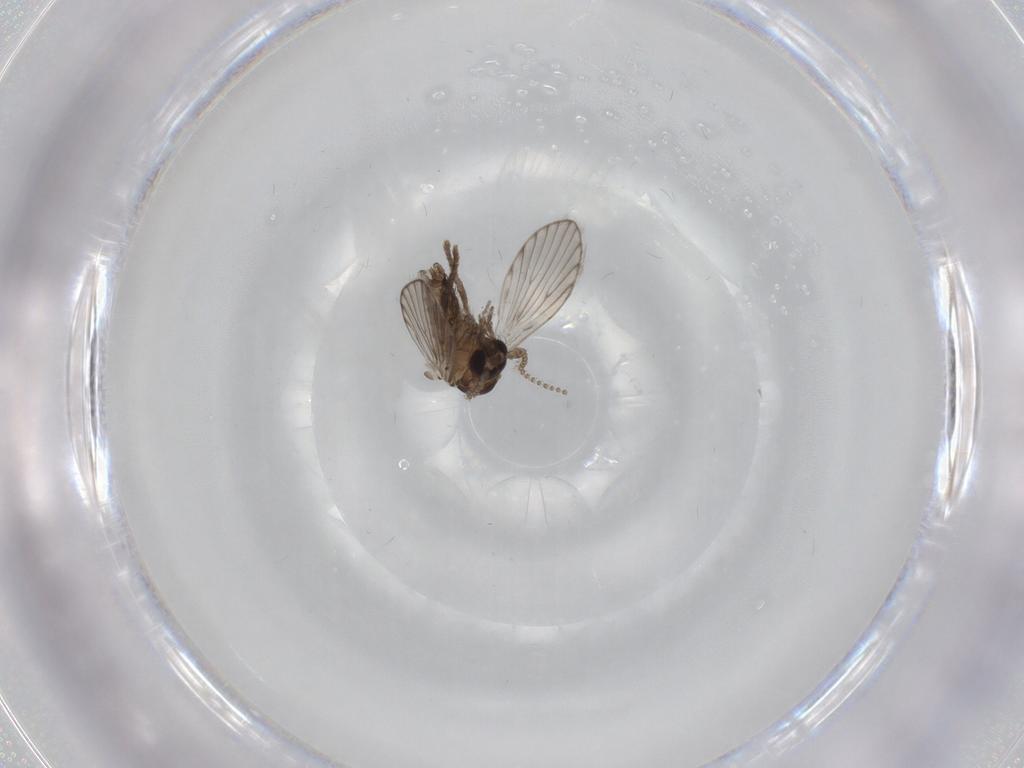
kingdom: Animalia
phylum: Arthropoda
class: Insecta
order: Diptera
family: Psychodidae
